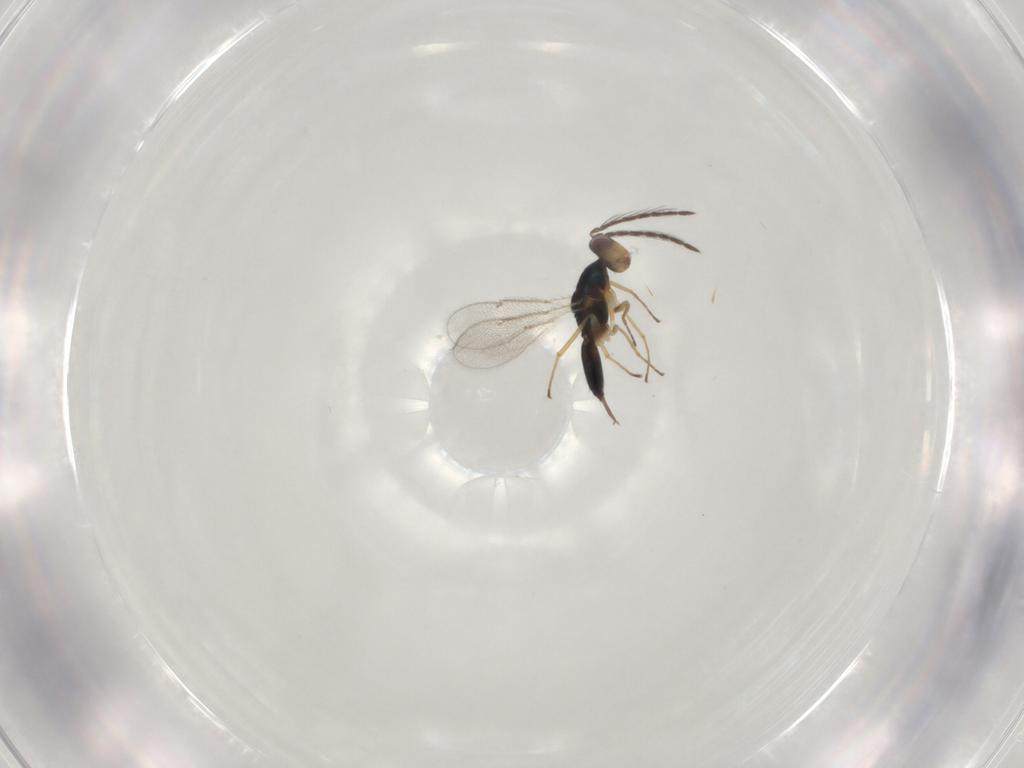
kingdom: Animalia
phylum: Arthropoda
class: Insecta
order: Hymenoptera
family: Eulophidae
